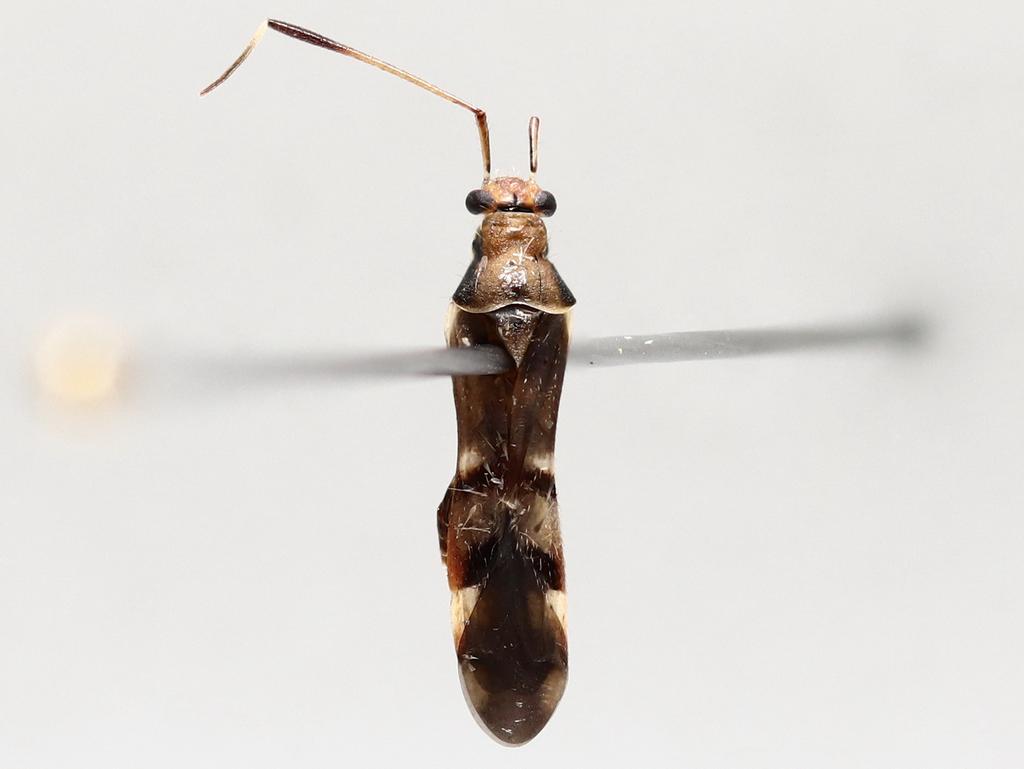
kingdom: Animalia
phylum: Arthropoda
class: Insecta
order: Diptera
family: Psychodidae
